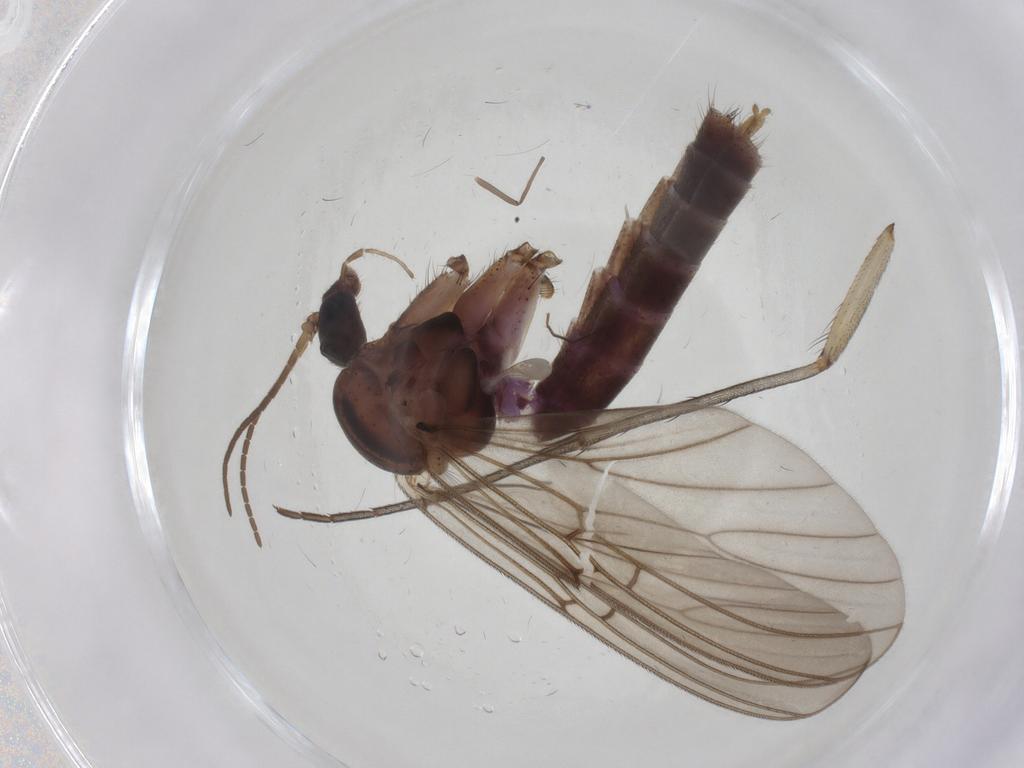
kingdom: Animalia
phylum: Arthropoda
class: Insecta
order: Diptera
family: Mycetophilidae
